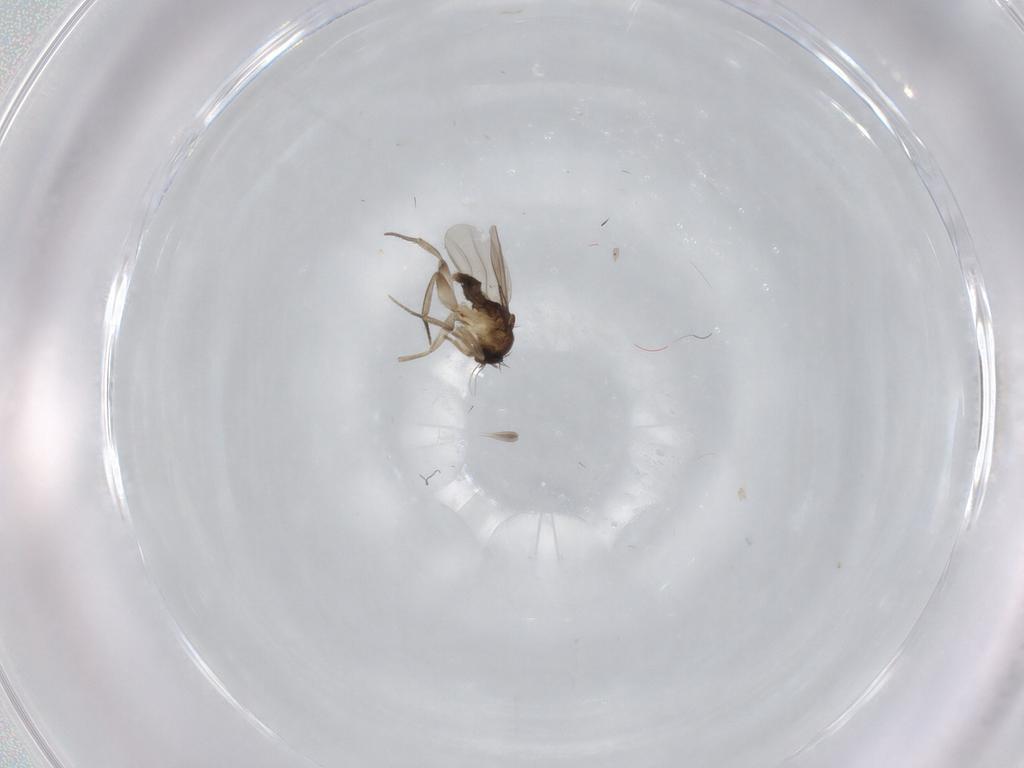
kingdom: Animalia
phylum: Arthropoda
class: Insecta
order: Diptera
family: Phoridae
